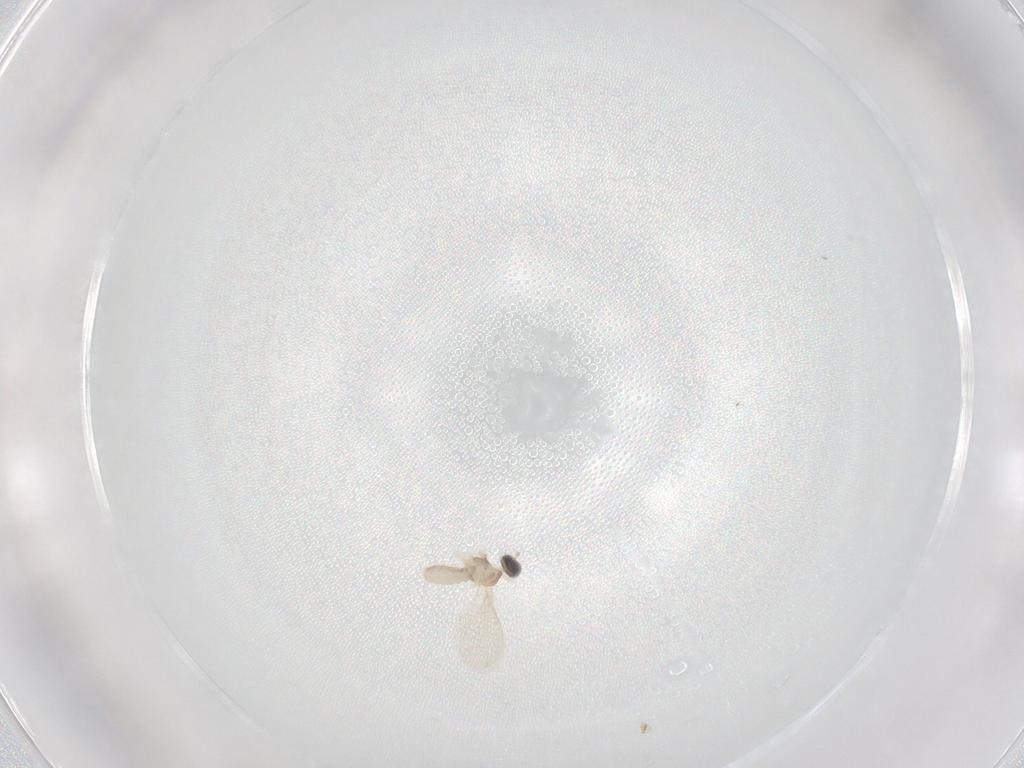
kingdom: Animalia
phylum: Arthropoda
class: Insecta
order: Diptera
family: Cecidomyiidae
